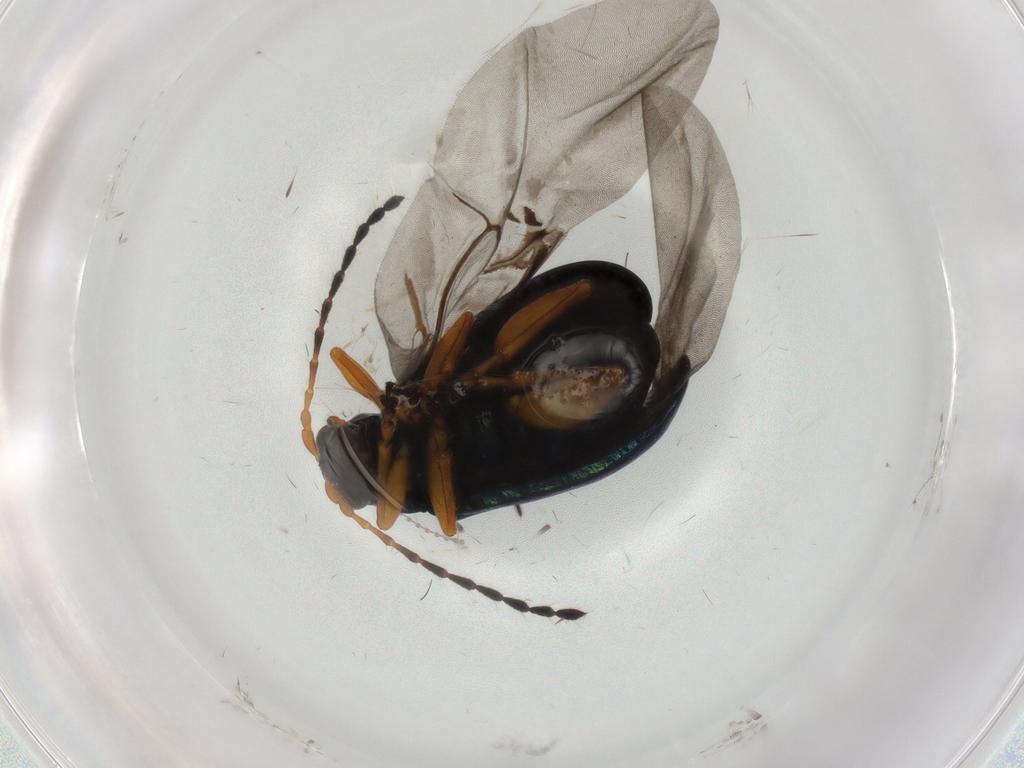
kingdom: Animalia
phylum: Arthropoda
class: Insecta
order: Coleoptera
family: Chrysomelidae
